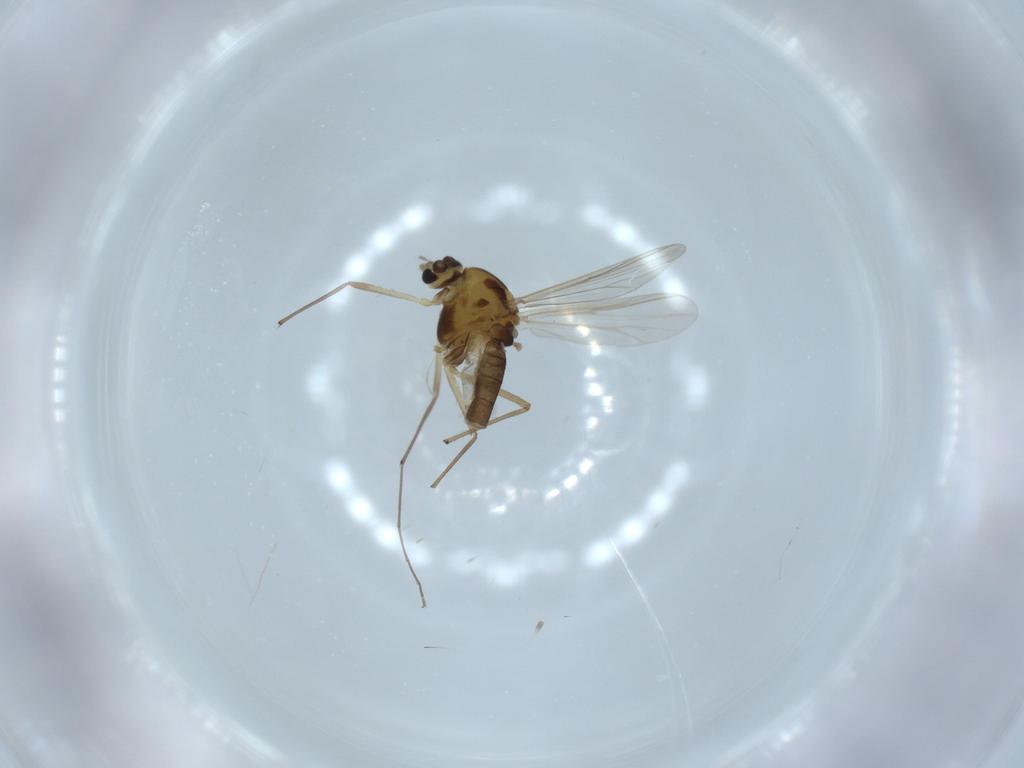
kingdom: Animalia
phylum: Arthropoda
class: Insecta
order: Diptera
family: Chironomidae
